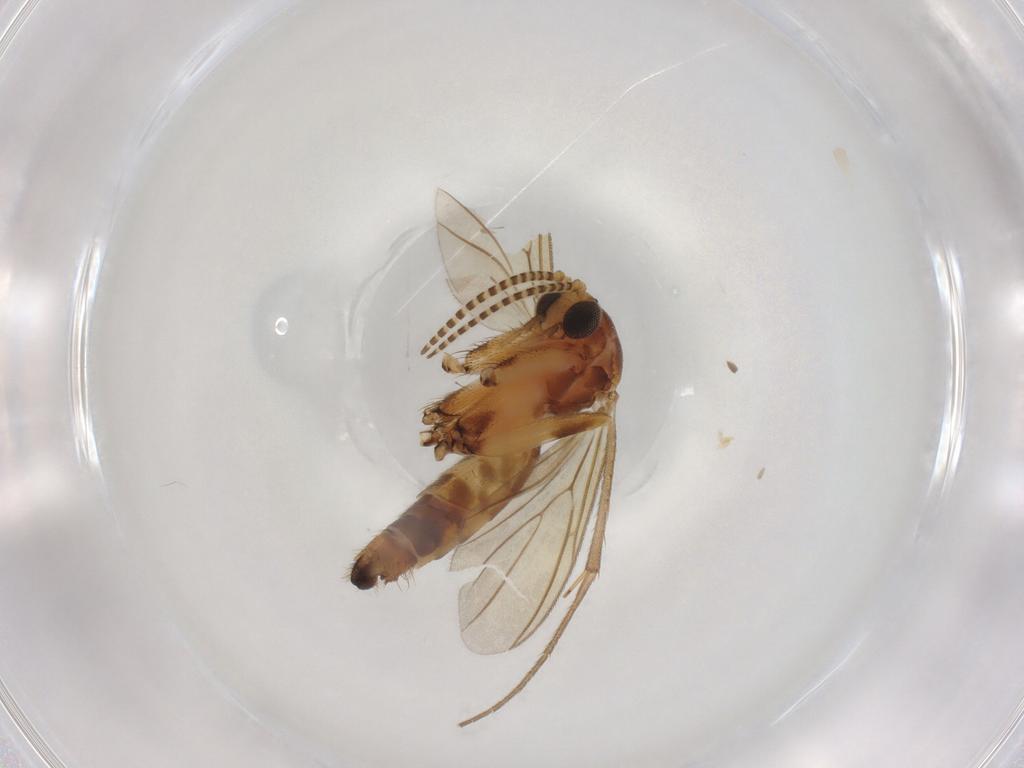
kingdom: Animalia
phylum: Arthropoda
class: Insecta
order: Diptera
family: Mycetophilidae
